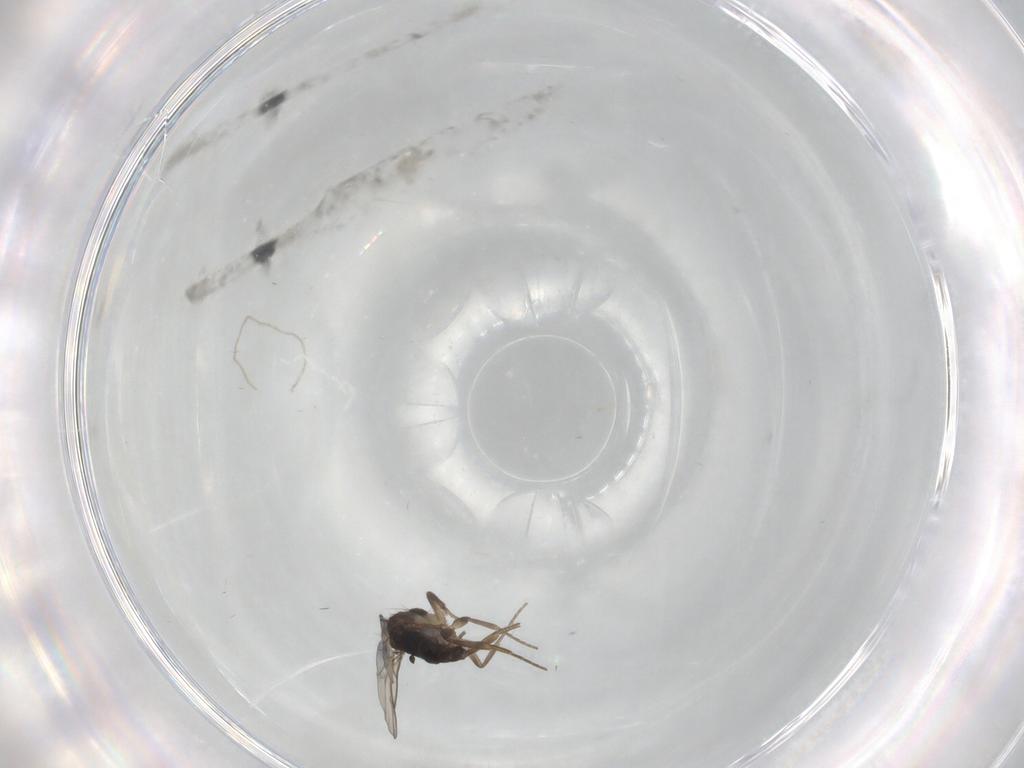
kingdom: Animalia
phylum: Arthropoda
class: Insecta
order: Diptera
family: Phoridae
